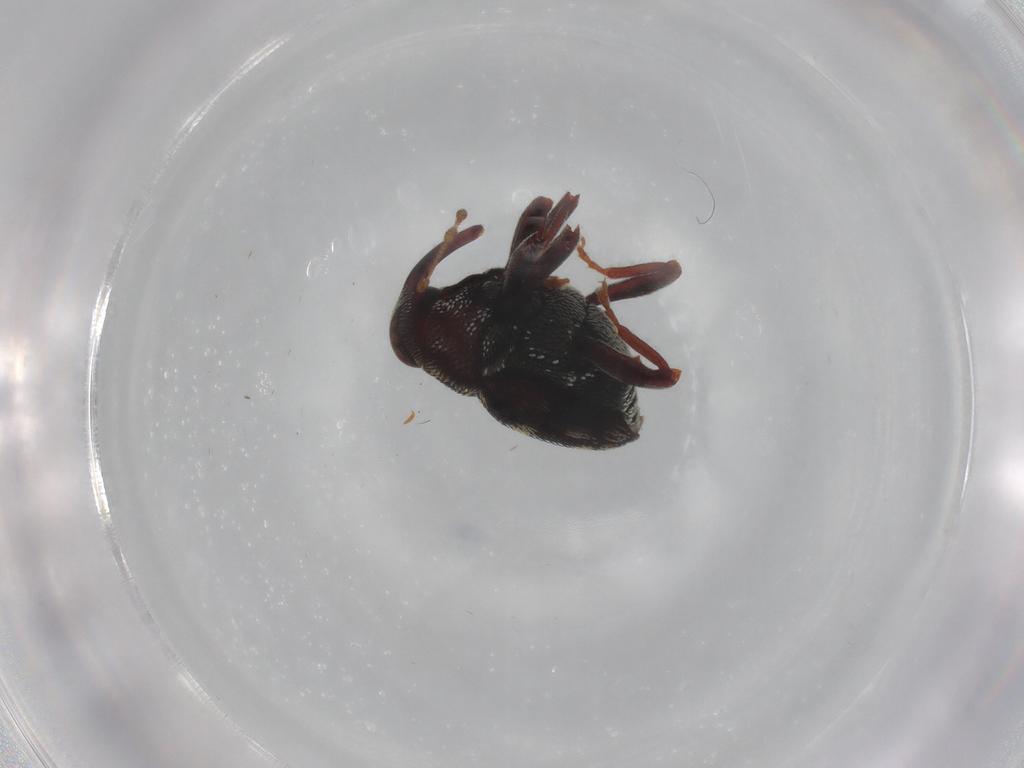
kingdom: Animalia
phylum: Arthropoda
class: Insecta
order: Coleoptera
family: Curculionidae
